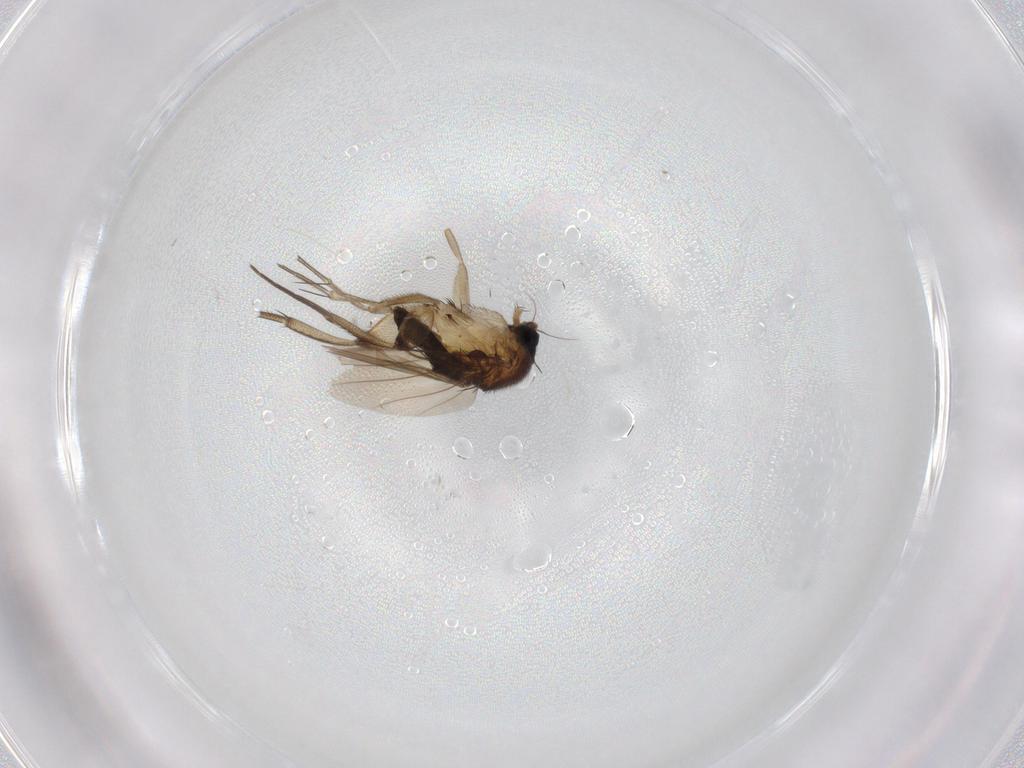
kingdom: Animalia
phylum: Arthropoda
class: Insecta
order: Diptera
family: Phoridae
